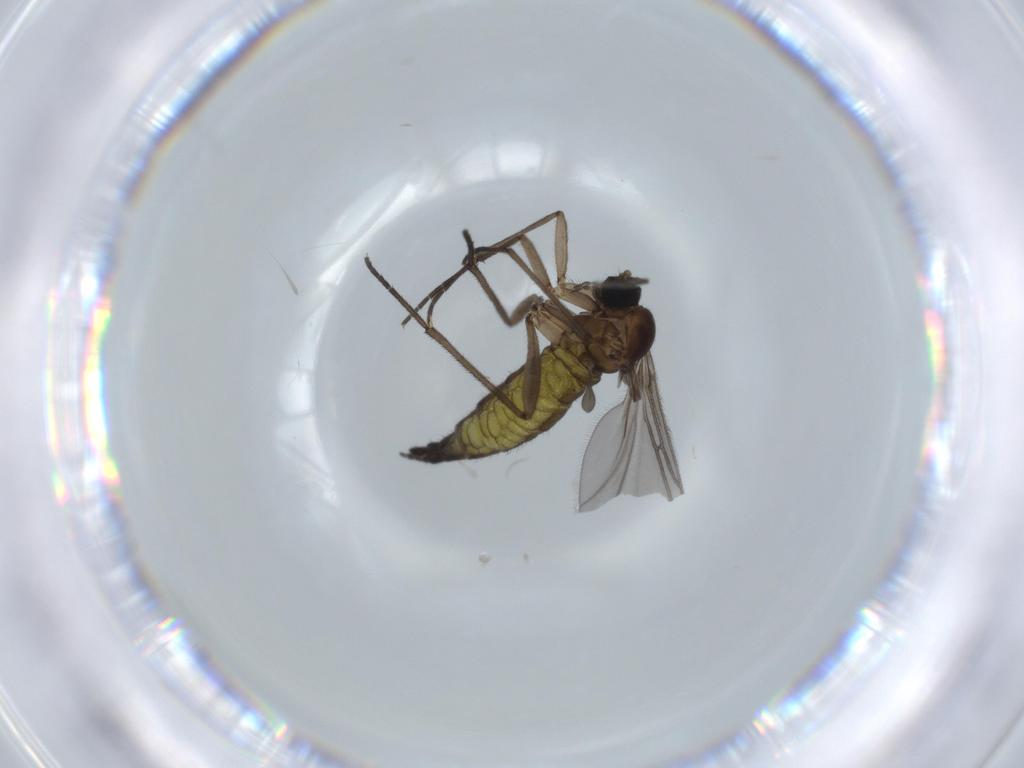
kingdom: Animalia
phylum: Arthropoda
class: Insecta
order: Diptera
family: Sciaridae
